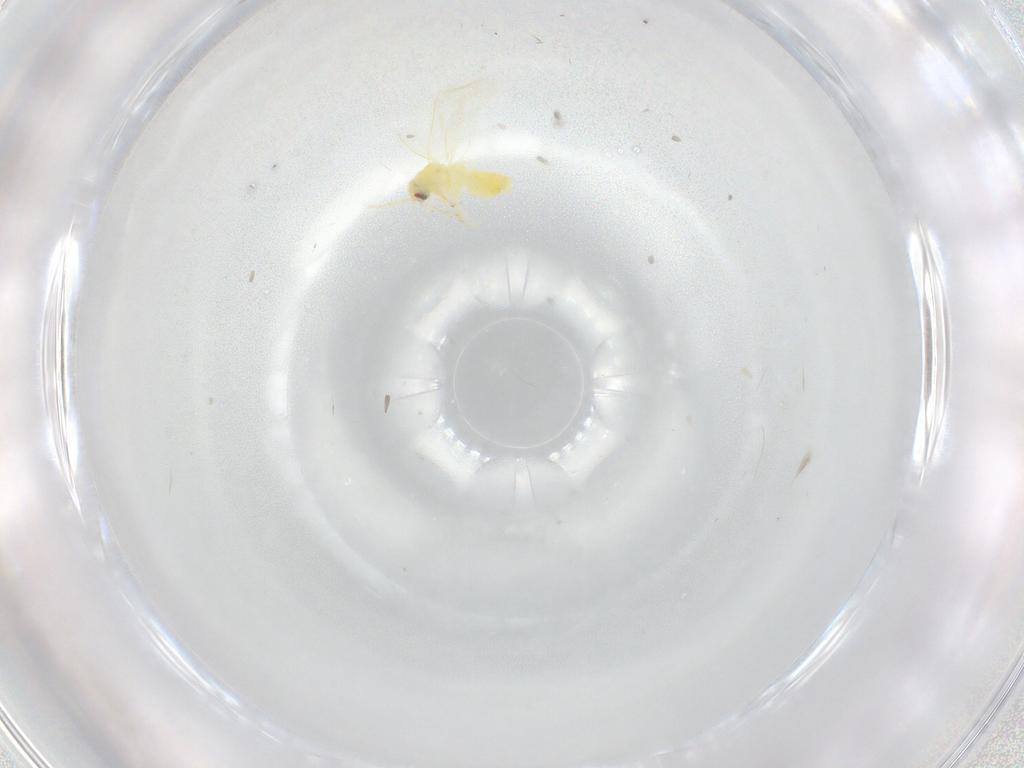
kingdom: Animalia
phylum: Arthropoda
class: Insecta
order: Hemiptera
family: Aleyrodidae
